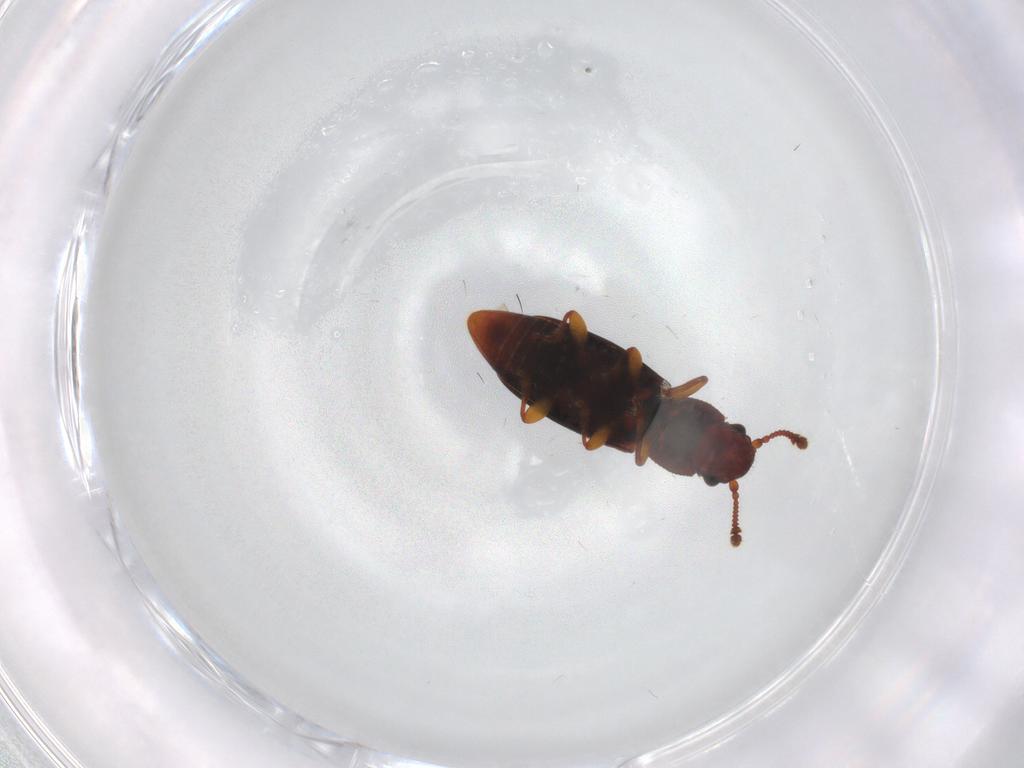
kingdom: Animalia
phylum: Arthropoda
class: Insecta
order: Coleoptera
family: Monotomidae
